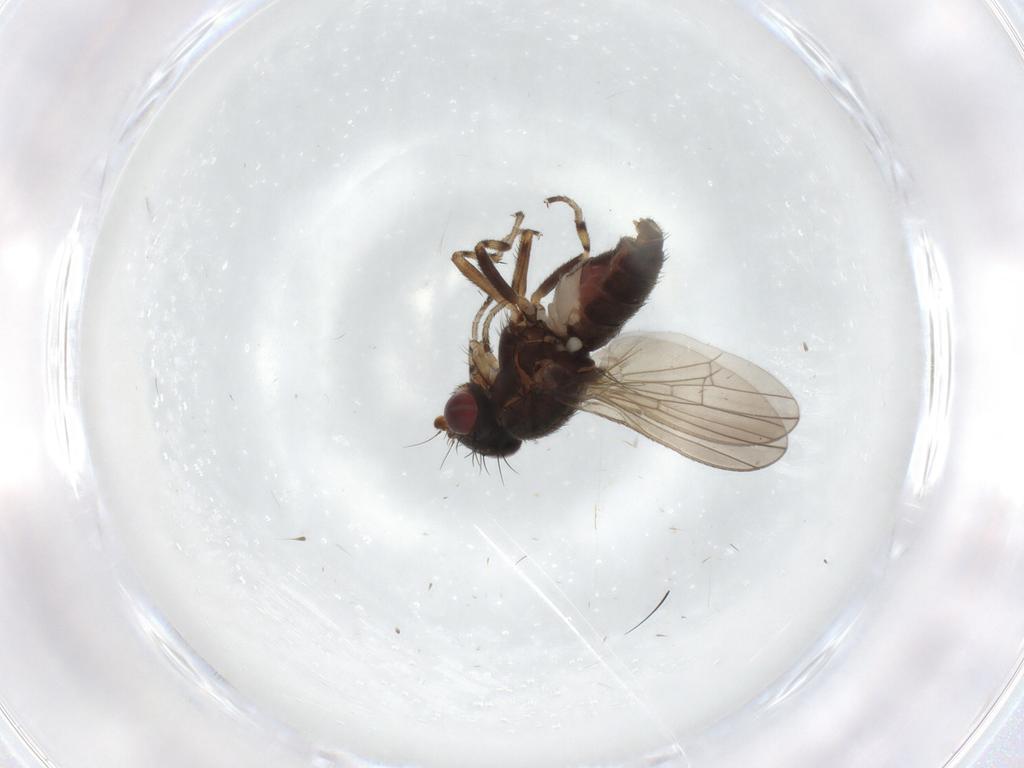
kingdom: Animalia
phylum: Arthropoda
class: Insecta
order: Diptera
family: Heleomyzidae
